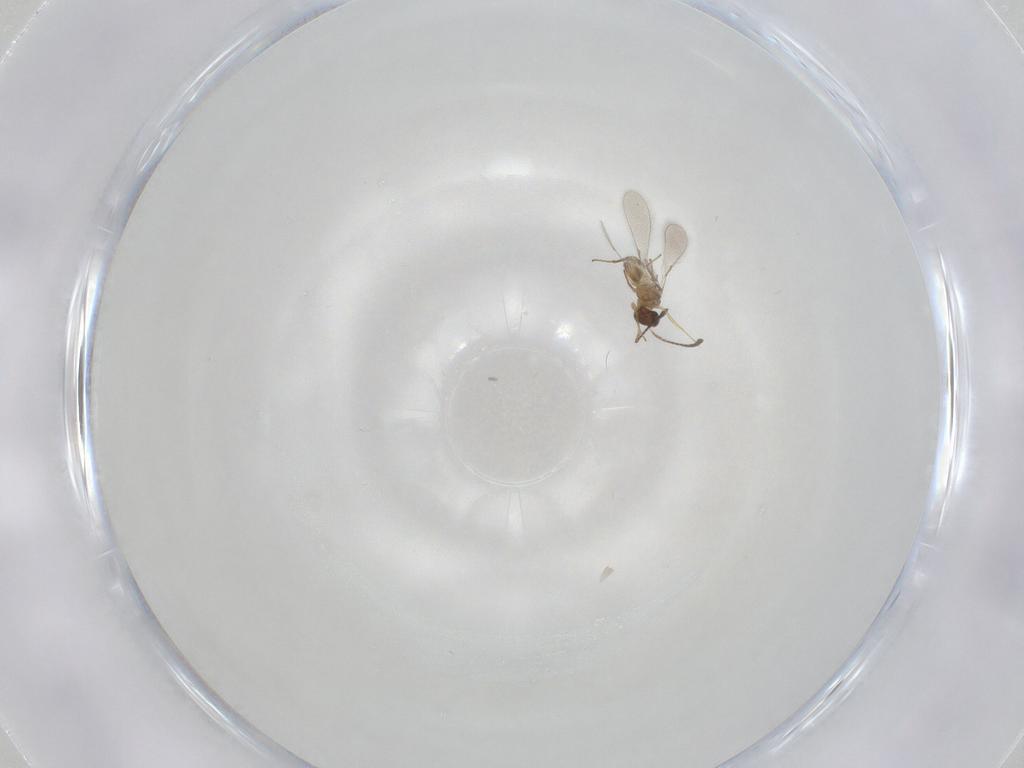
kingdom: Animalia
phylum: Arthropoda
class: Insecta
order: Hymenoptera
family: Mymaridae
